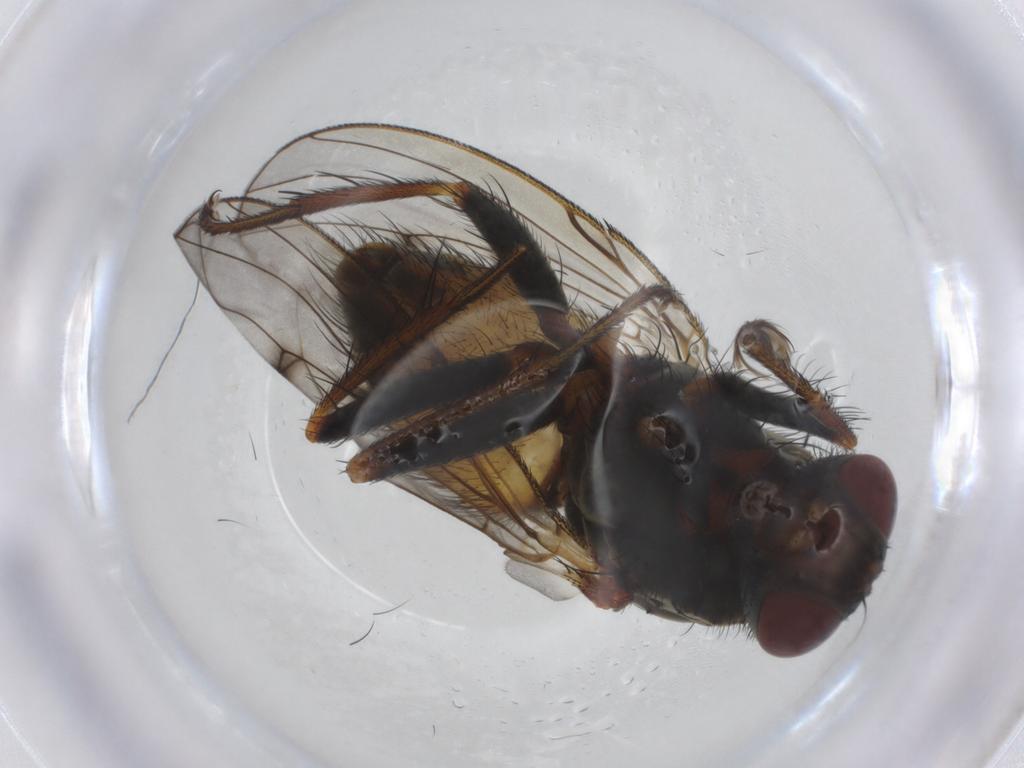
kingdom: Animalia
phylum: Arthropoda
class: Insecta
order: Diptera
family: Muscidae
